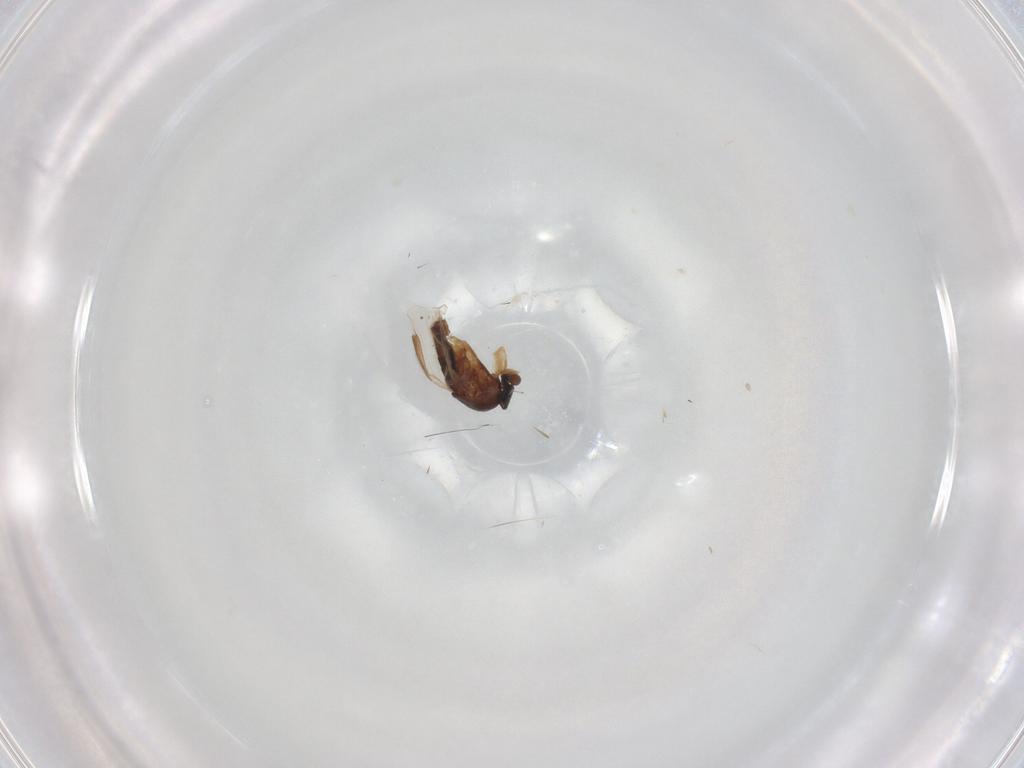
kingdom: Animalia
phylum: Arthropoda
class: Insecta
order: Diptera
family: Phoridae
